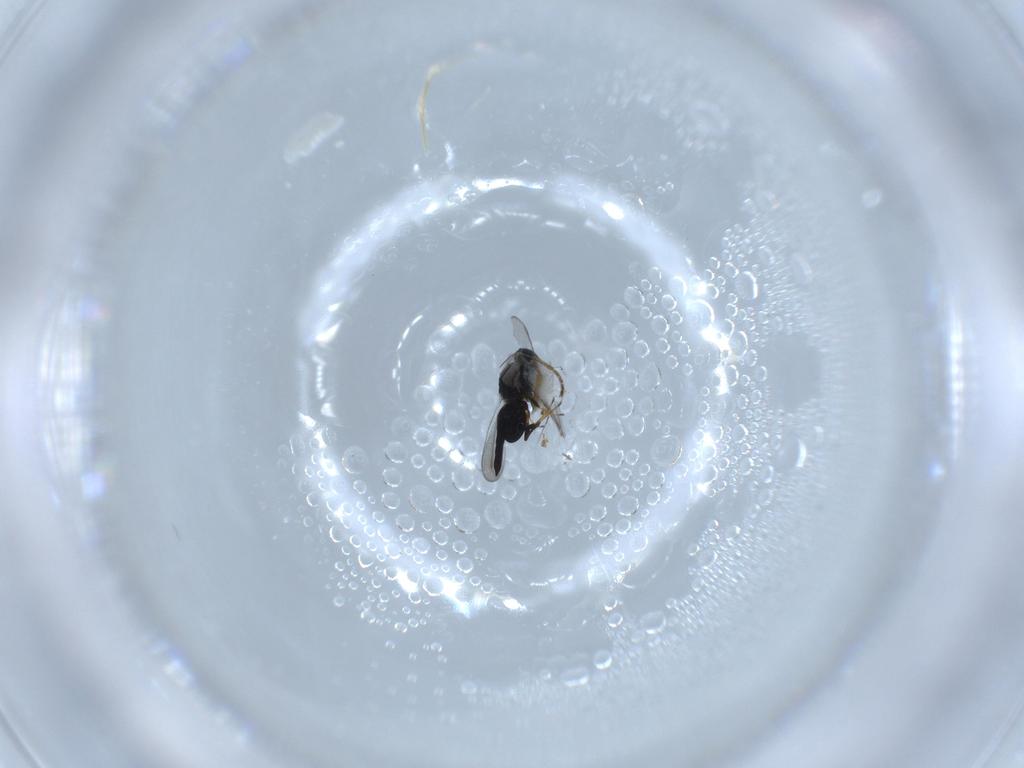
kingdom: Animalia
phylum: Arthropoda
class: Insecta
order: Hymenoptera
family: Platygastridae
